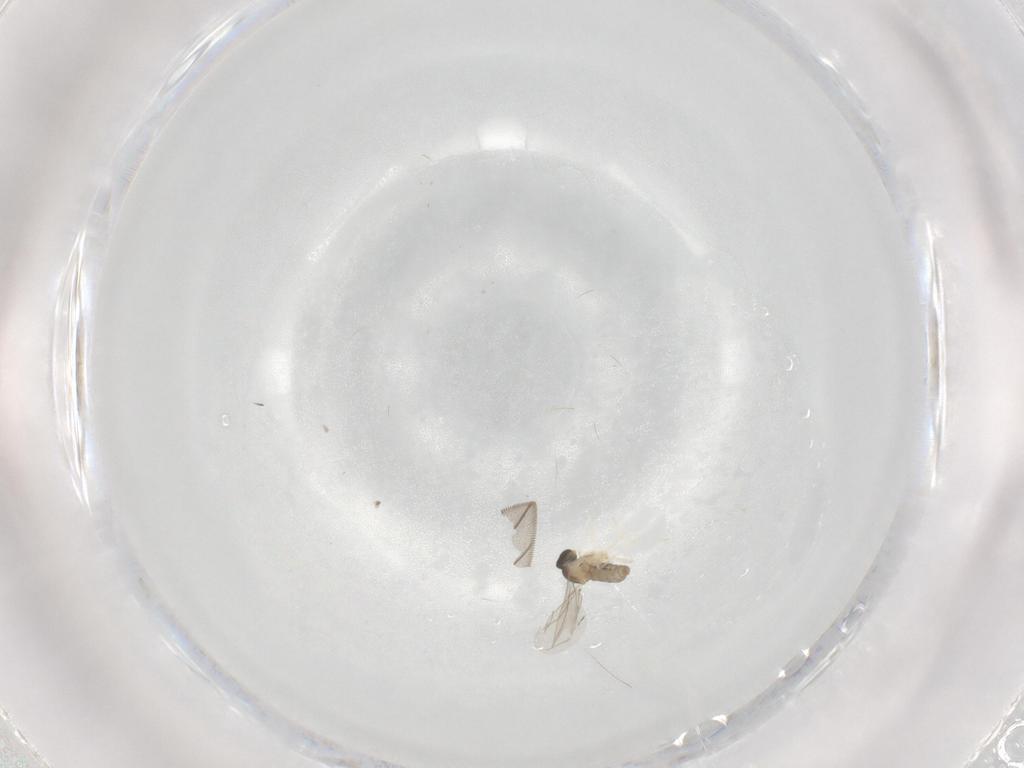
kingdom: Animalia
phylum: Arthropoda
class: Insecta
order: Diptera
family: Cecidomyiidae
